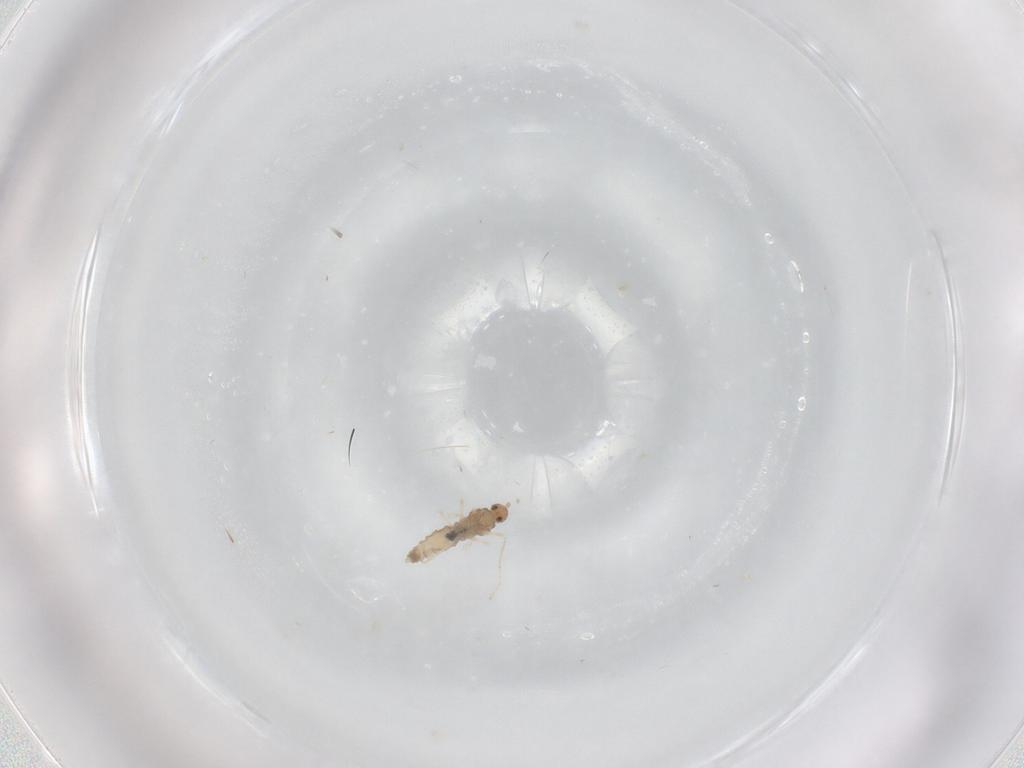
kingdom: Animalia
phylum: Arthropoda
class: Insecta
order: Diptera
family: Cecidomyiidae
